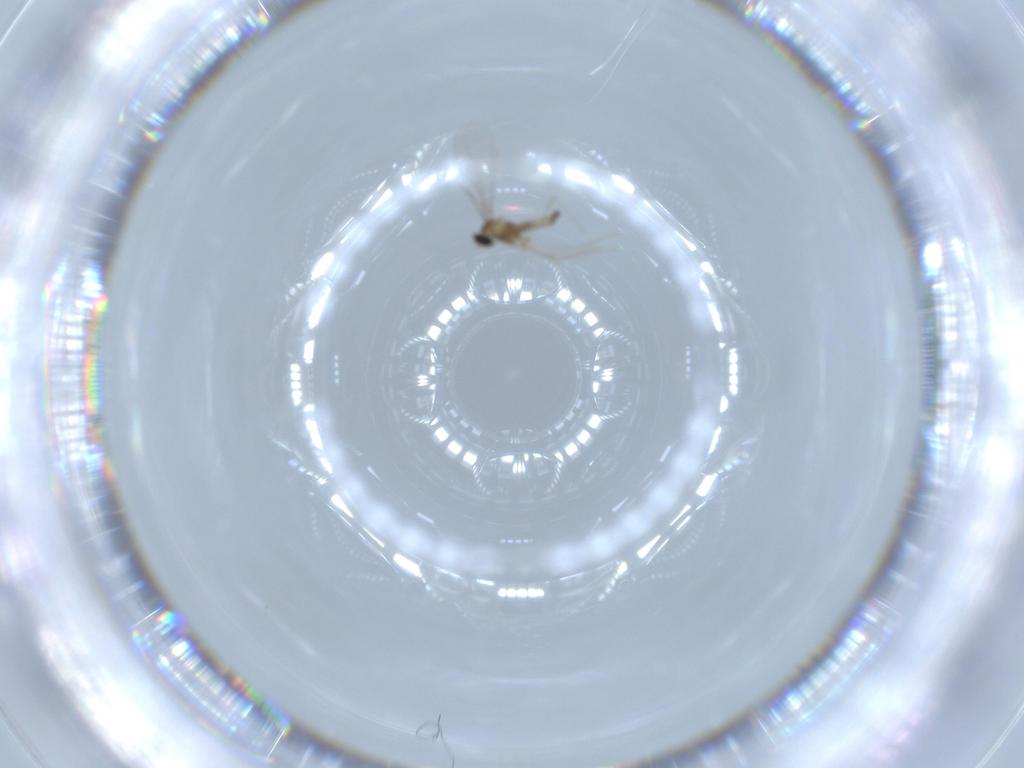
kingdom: Animalia
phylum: Arthropoda
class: Insecta
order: Diptera
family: Cecidomyiidae
